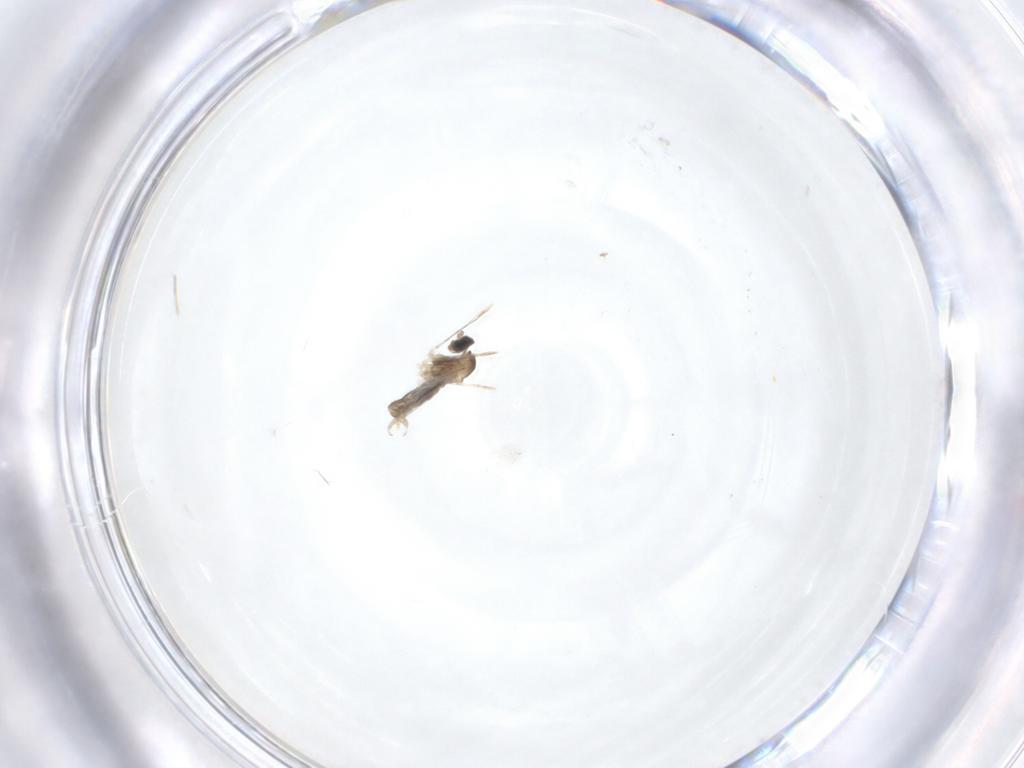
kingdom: Animalia
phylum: Arthropoda
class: Insecta
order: Diptera
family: Cecidomyiidae
